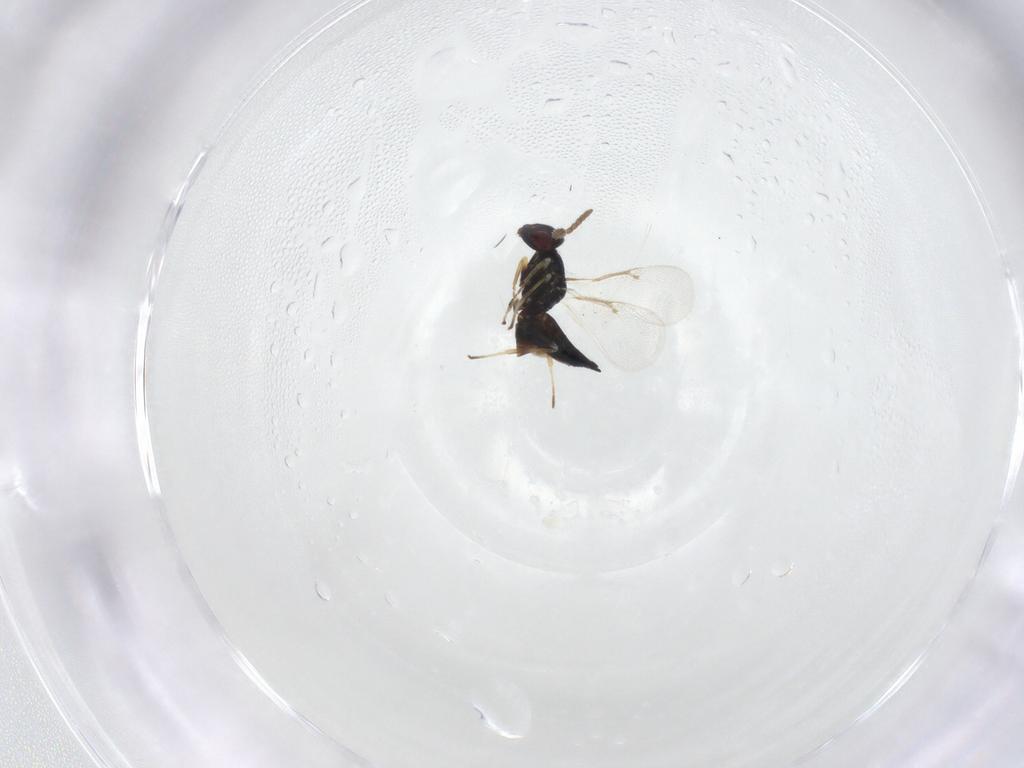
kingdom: Animalia
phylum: Arthropoda
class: Insecta
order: Hymenoptera
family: Eulophidae
